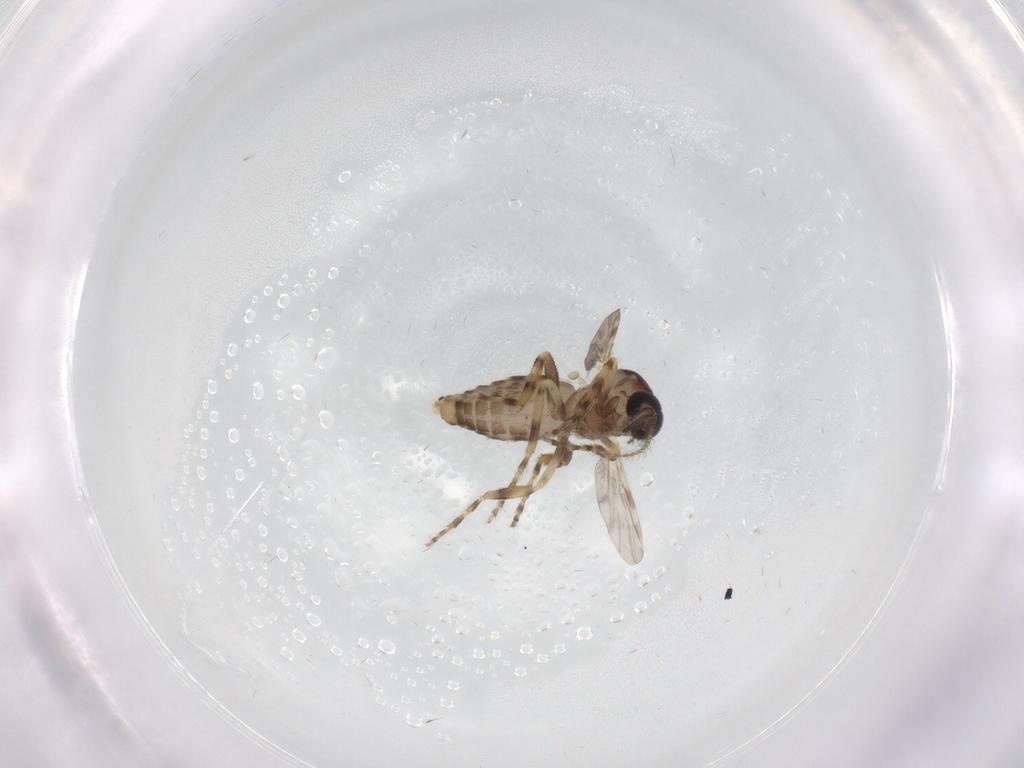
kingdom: Animalia
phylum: Arthropoda
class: Insecta
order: Diptera
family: Ceratopogonidae
